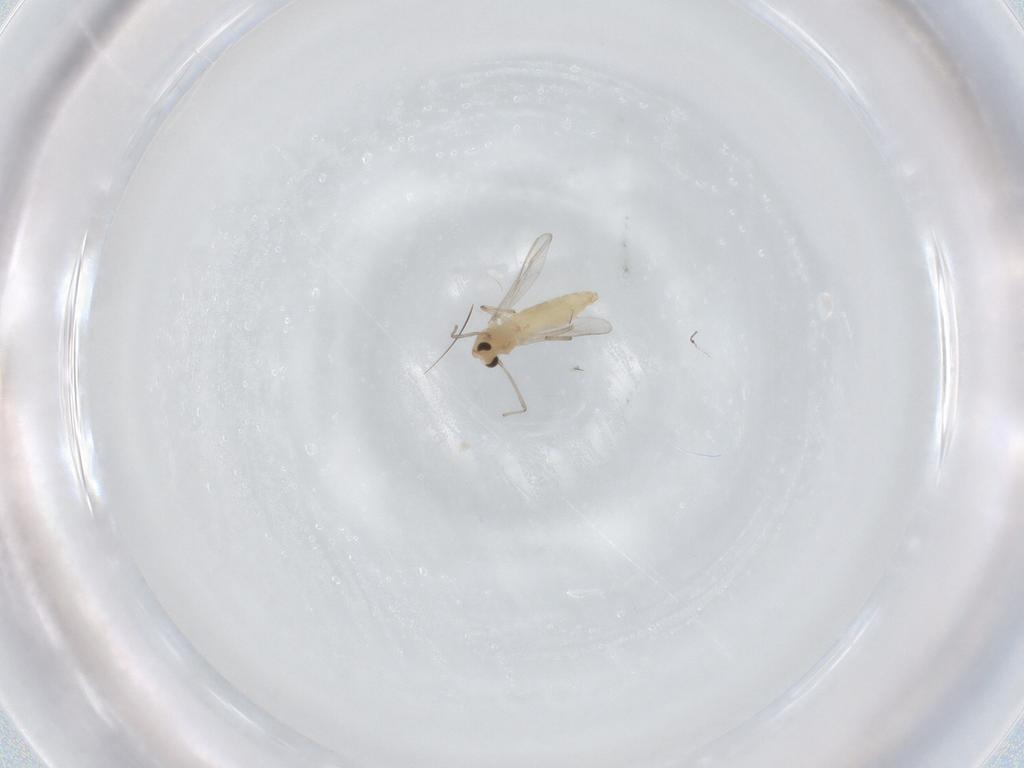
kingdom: Animalia
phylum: Arthropoda
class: Insecta
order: Diptera
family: Chironomidae
